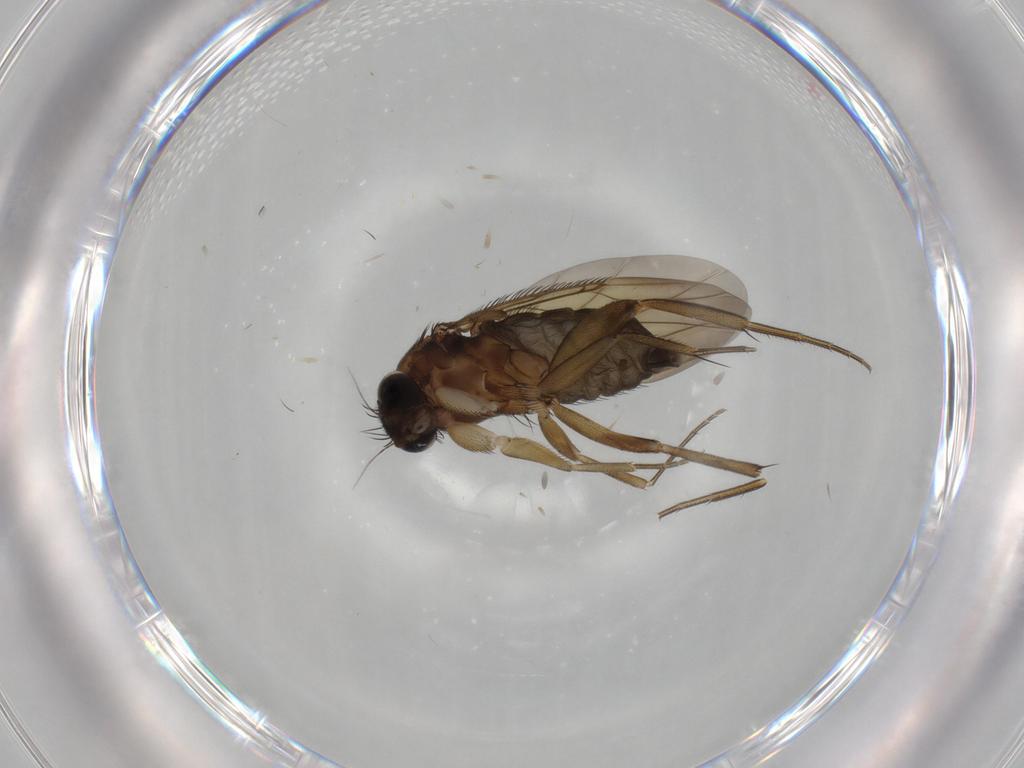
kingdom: Animalia
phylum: Arthropoda
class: Insecta
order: Diptera
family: Phoridae
